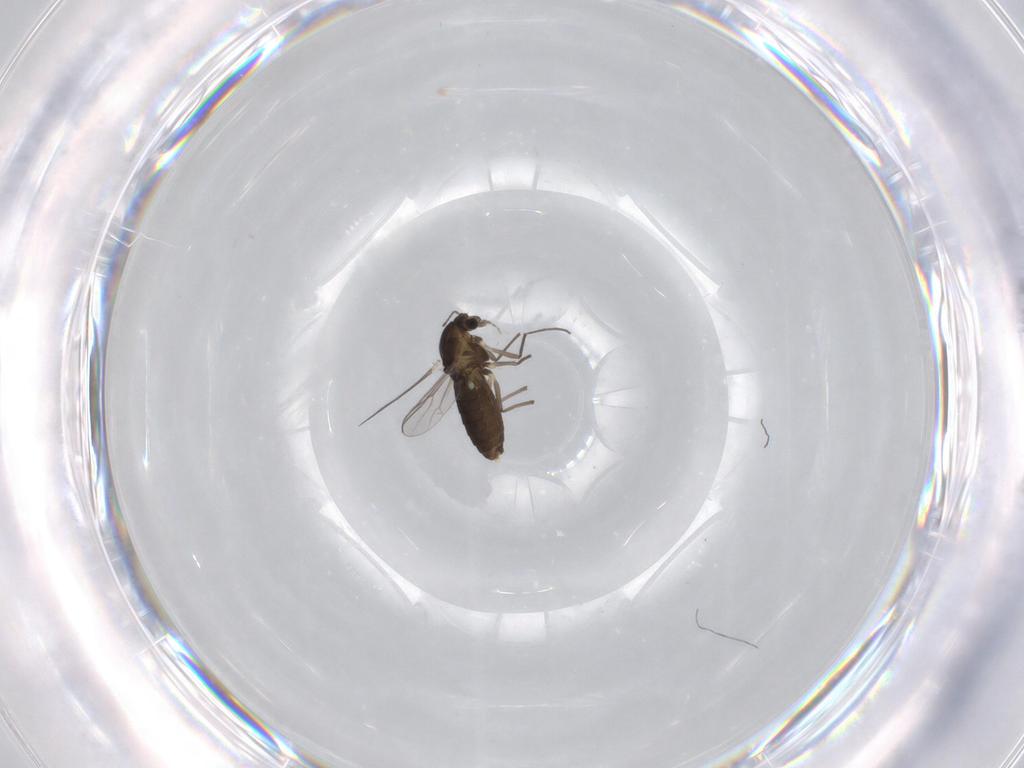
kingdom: Animalia
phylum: Arthropoda
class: Insecta
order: Diptera
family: Chironomidae
